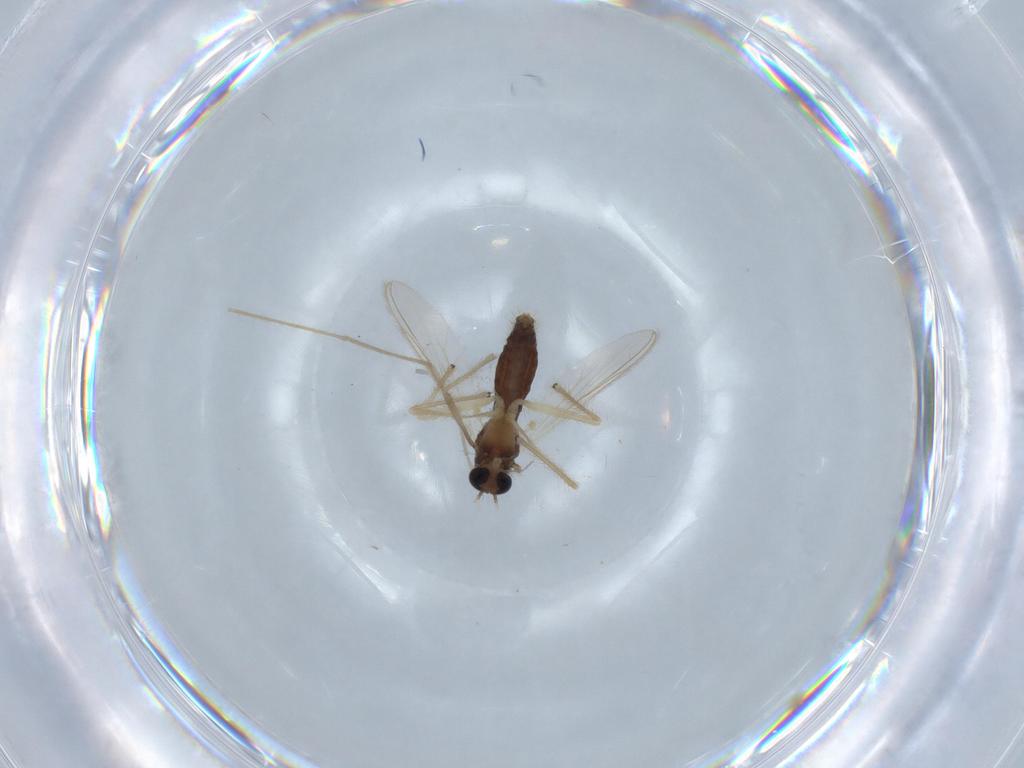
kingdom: Animalia
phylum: Arthropoda
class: Insecta
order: Diptera
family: Chironomidae
